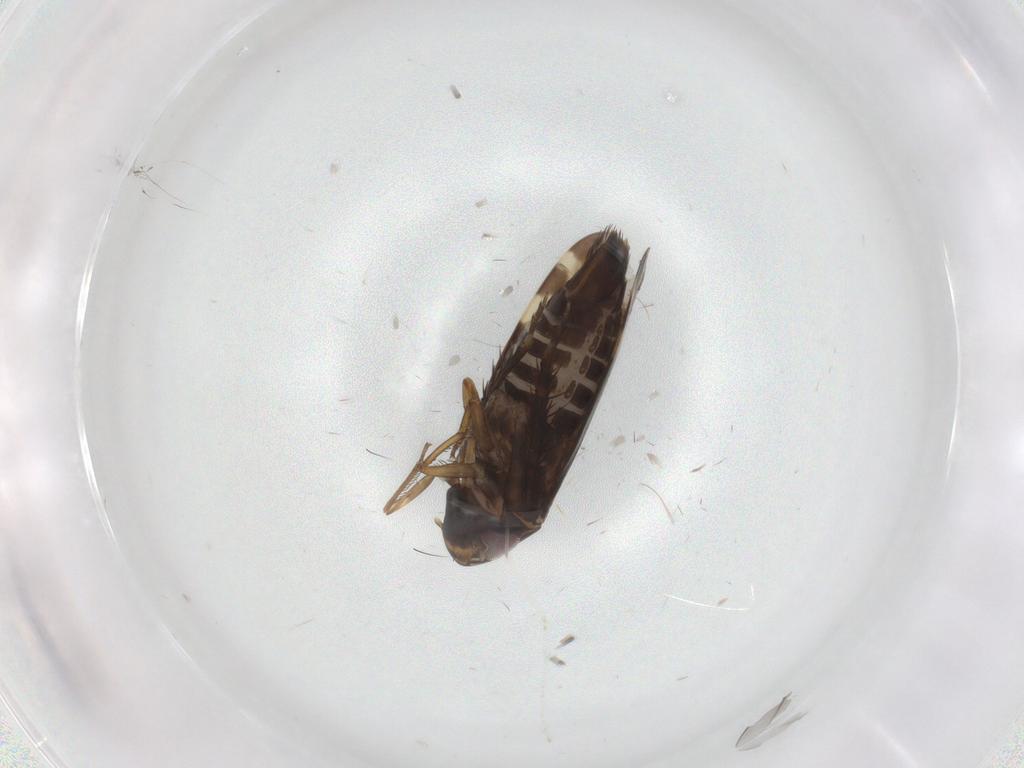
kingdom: Animalia
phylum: Arthropoda
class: Insecta
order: Hemiptera
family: Cicadellidae
